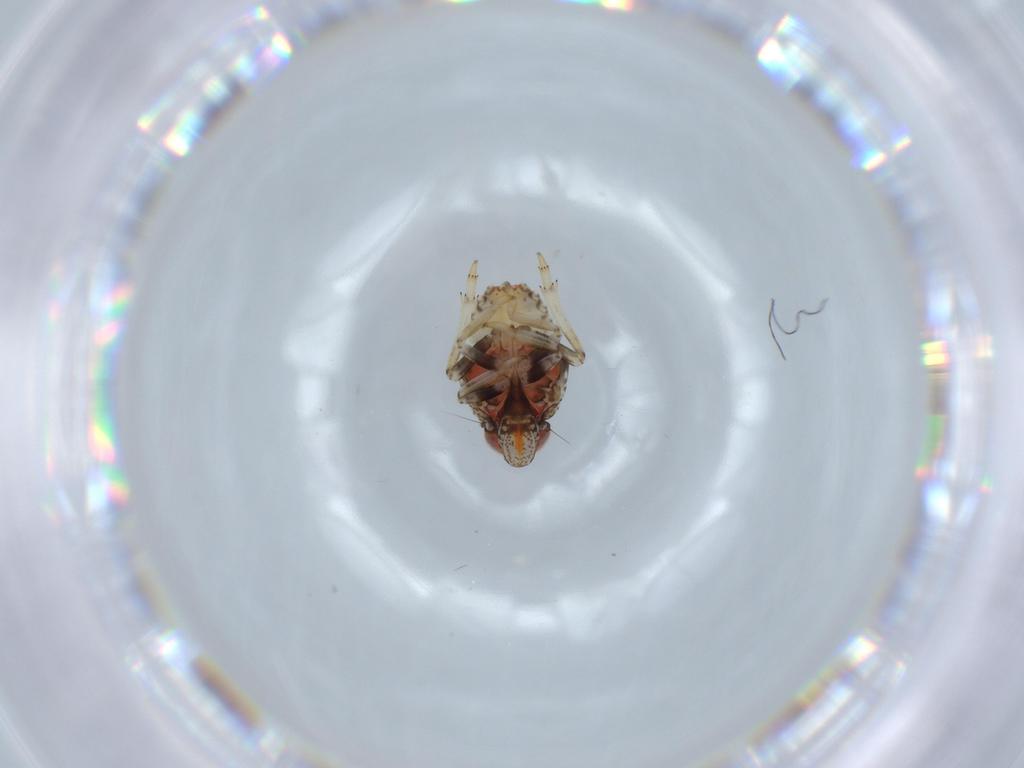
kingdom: Animalia
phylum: Arthropoda
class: Insecta
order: Hemiptera
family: Issidae
